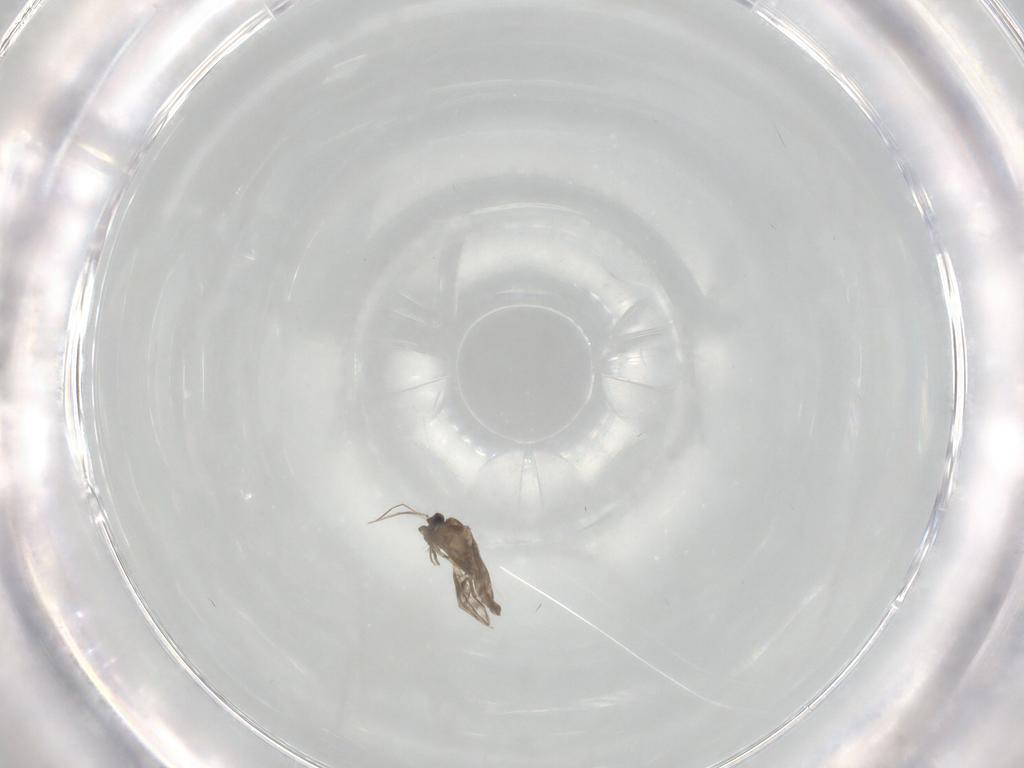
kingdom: Animalia
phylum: Arthropoda
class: Insecta
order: Diptera
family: Cecidomyiidae
